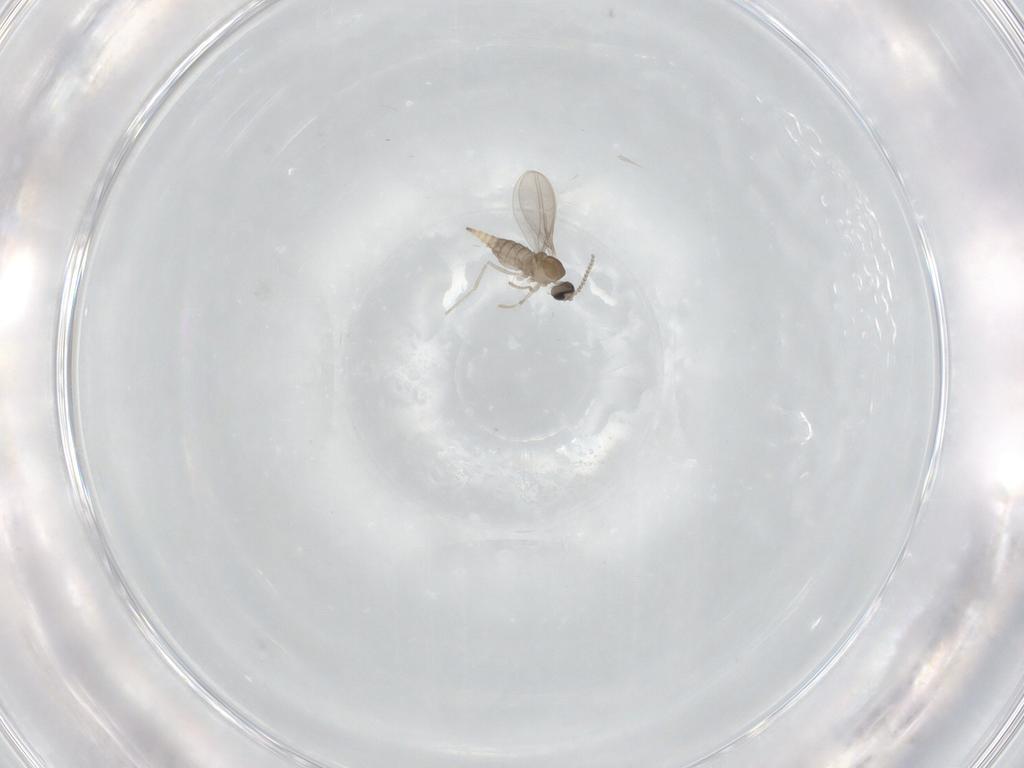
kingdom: Animalia
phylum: Arthropoda
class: Insecta
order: Diptera
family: Cecidomyiidae
